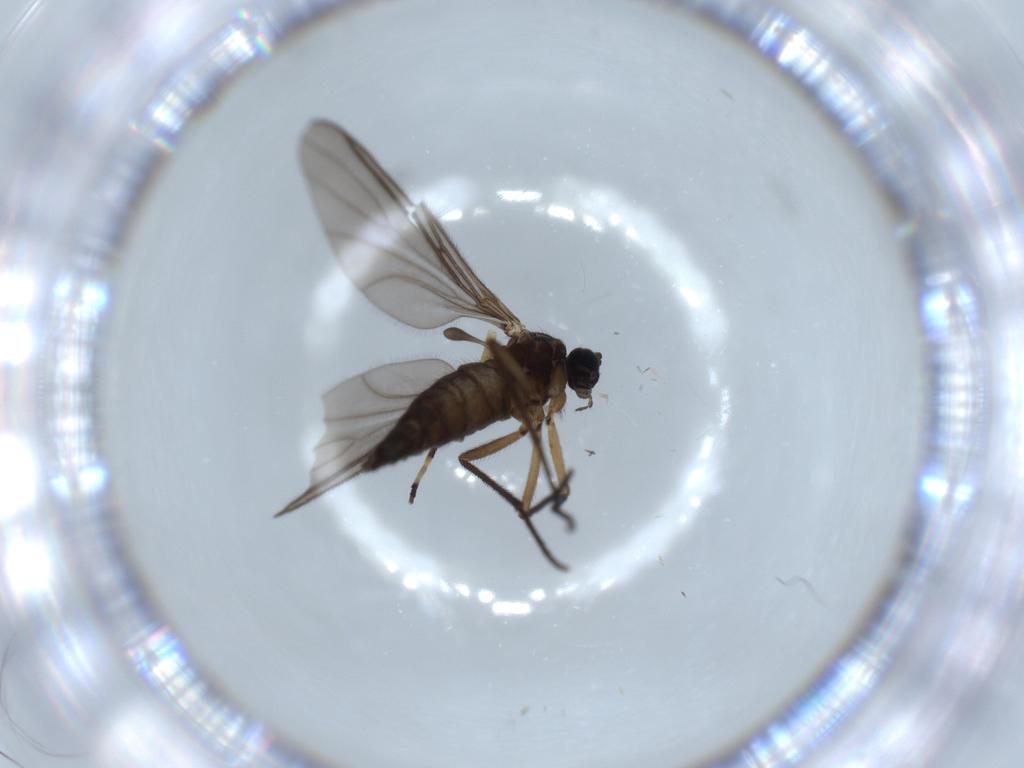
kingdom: Animalia
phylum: Arthropoda
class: Insecta
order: Diptera
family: Sciaridae
